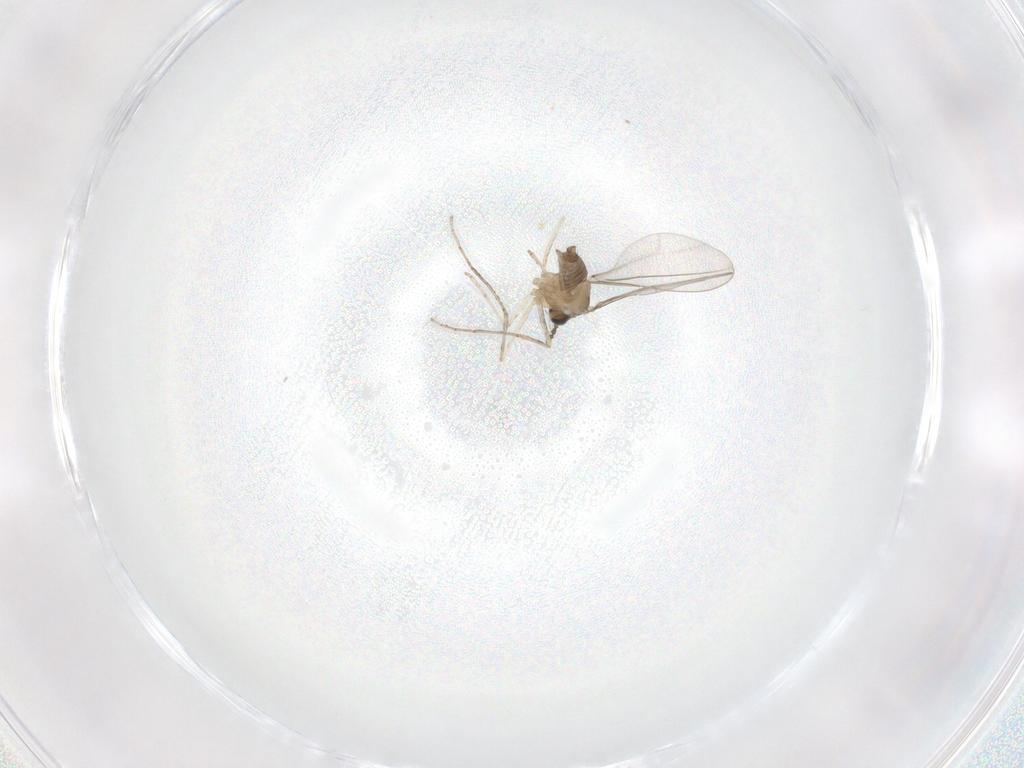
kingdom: Animalia
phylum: Arthropoda
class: Insecta
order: Diptera
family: Cecidomyiidae
